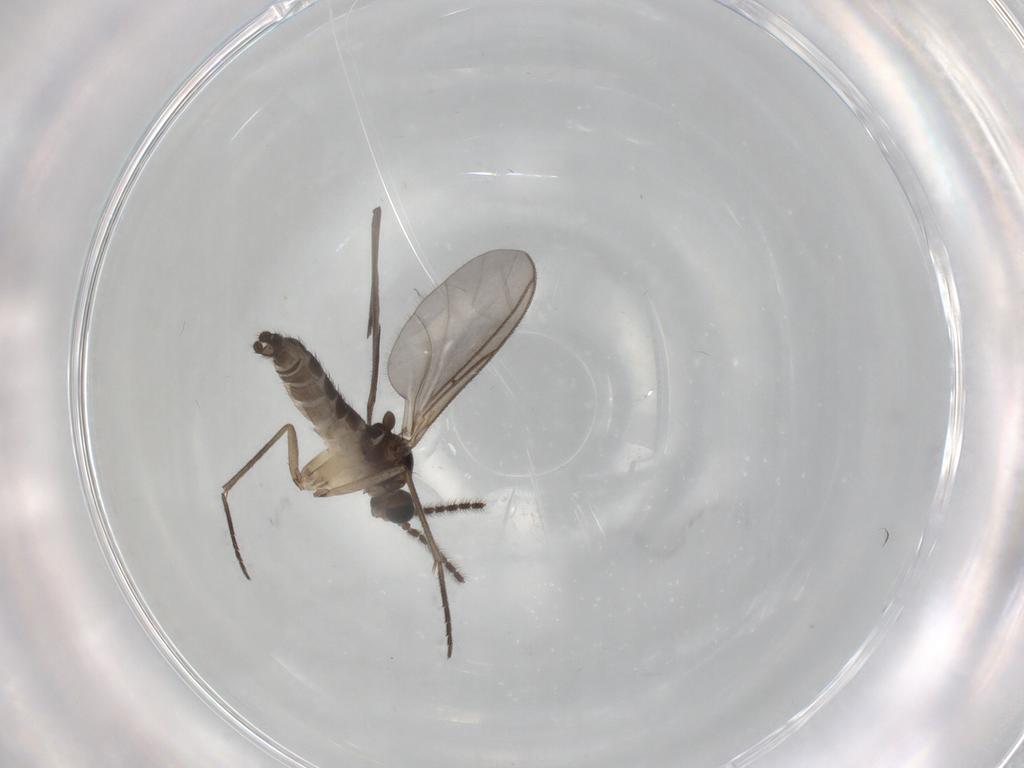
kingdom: Animalia
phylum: Arthropoda
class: Insecta
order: Diptera
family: Sciaridae
